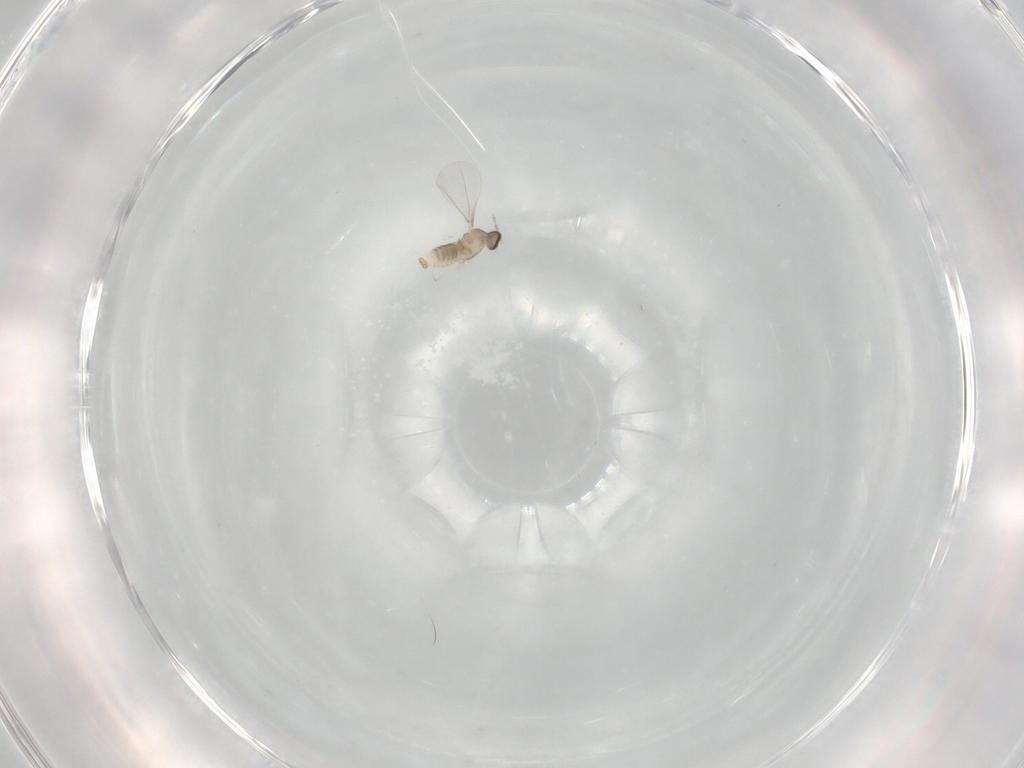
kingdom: Animalia
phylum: Arthropoda
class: Insecta
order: Diptera
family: Cecidomyiidae
